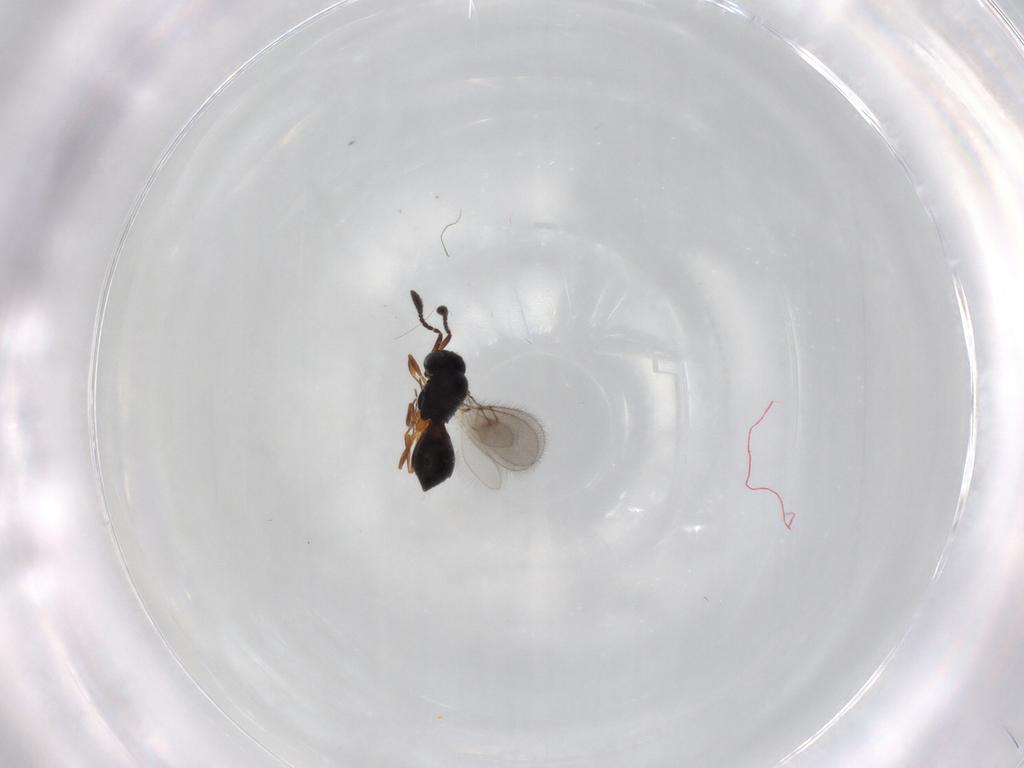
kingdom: Animalia
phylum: Arthropoda
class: Insecta
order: Hymenoptera
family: Scelionidae
